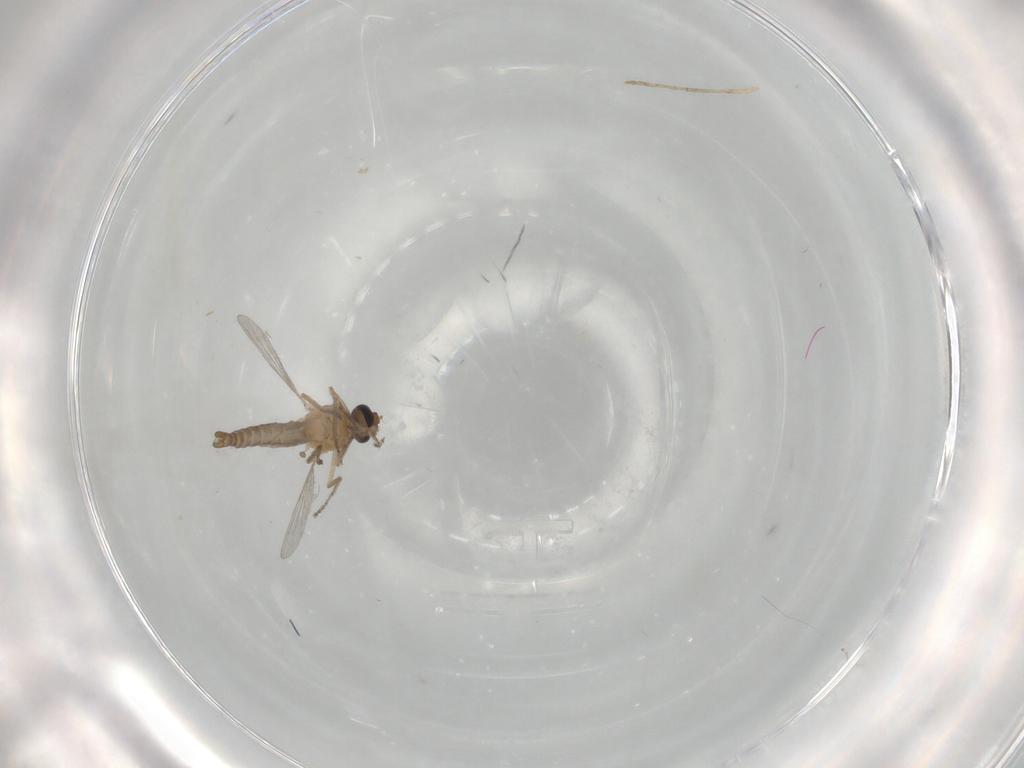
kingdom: Animalia
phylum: Arthropoda
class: Insecta
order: Diptera
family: Ceratopogonidae
